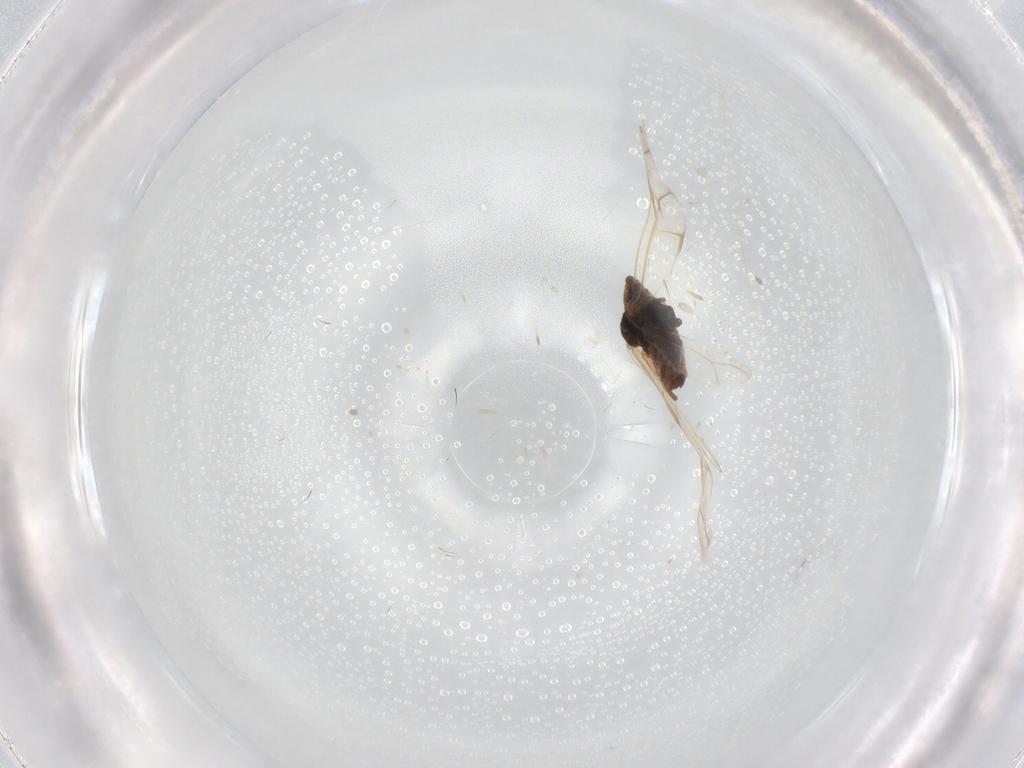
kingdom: Animalia
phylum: Arthropoda
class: Insecta
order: Hemiptera
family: Aphididae
